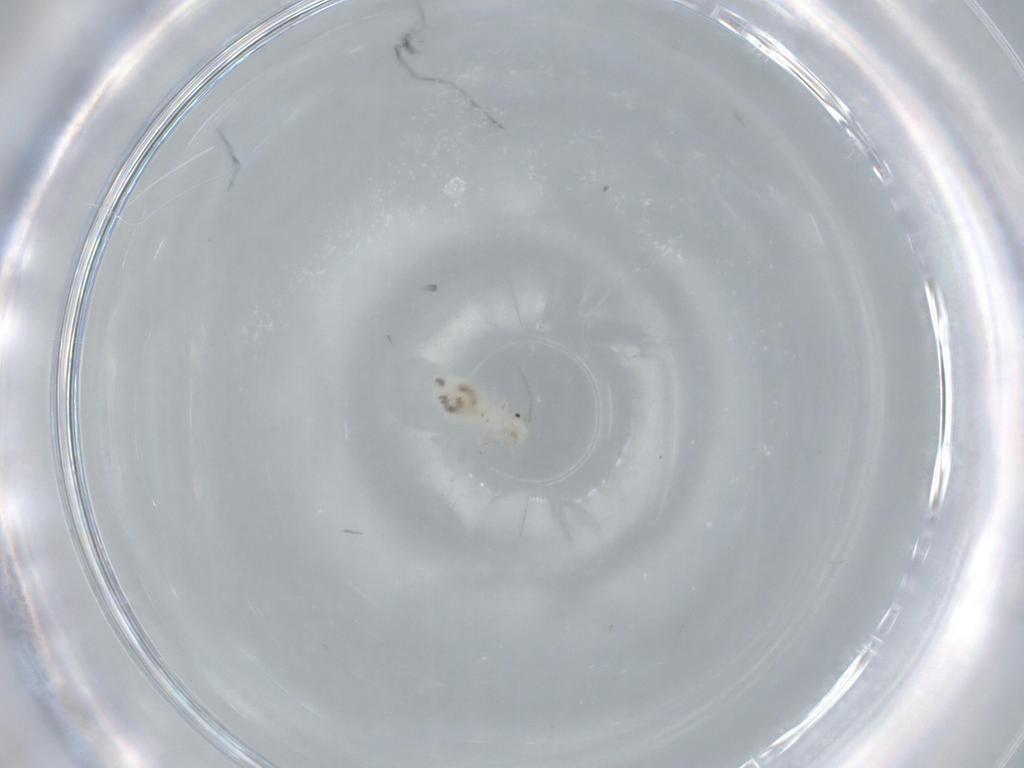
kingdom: Animalia
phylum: Arthropoda
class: Insecta
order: Psocodea
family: Caeciliusidae
